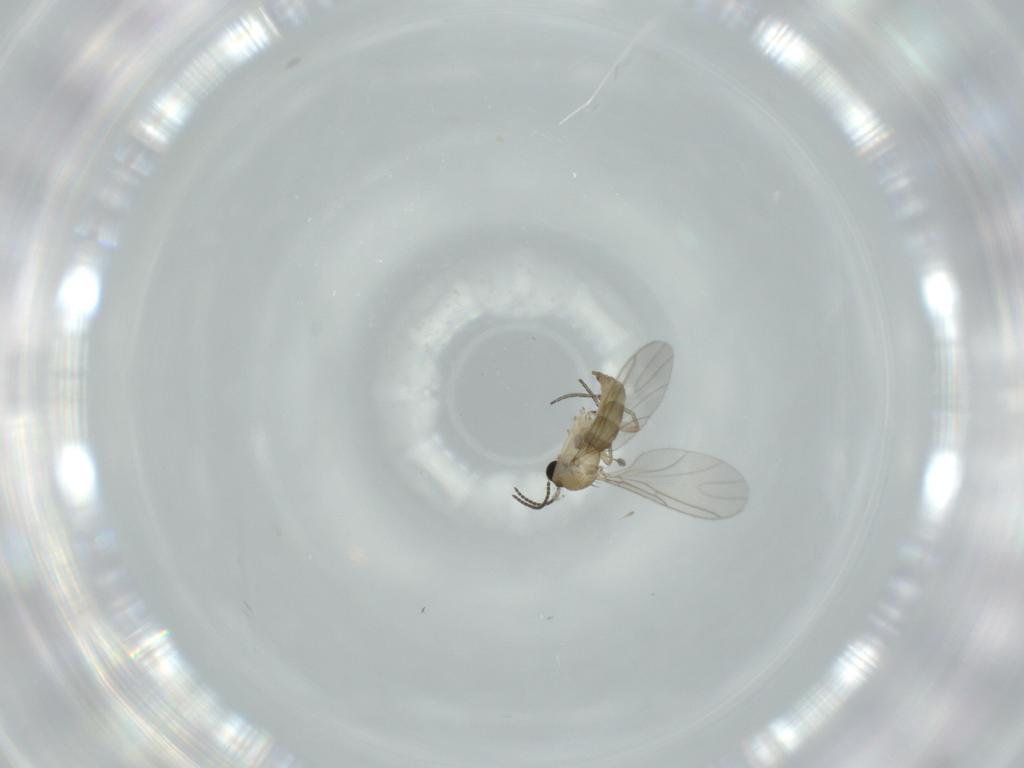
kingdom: Animalia
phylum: Arthropoda
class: Insecta
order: Diptera
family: Sciaridae
